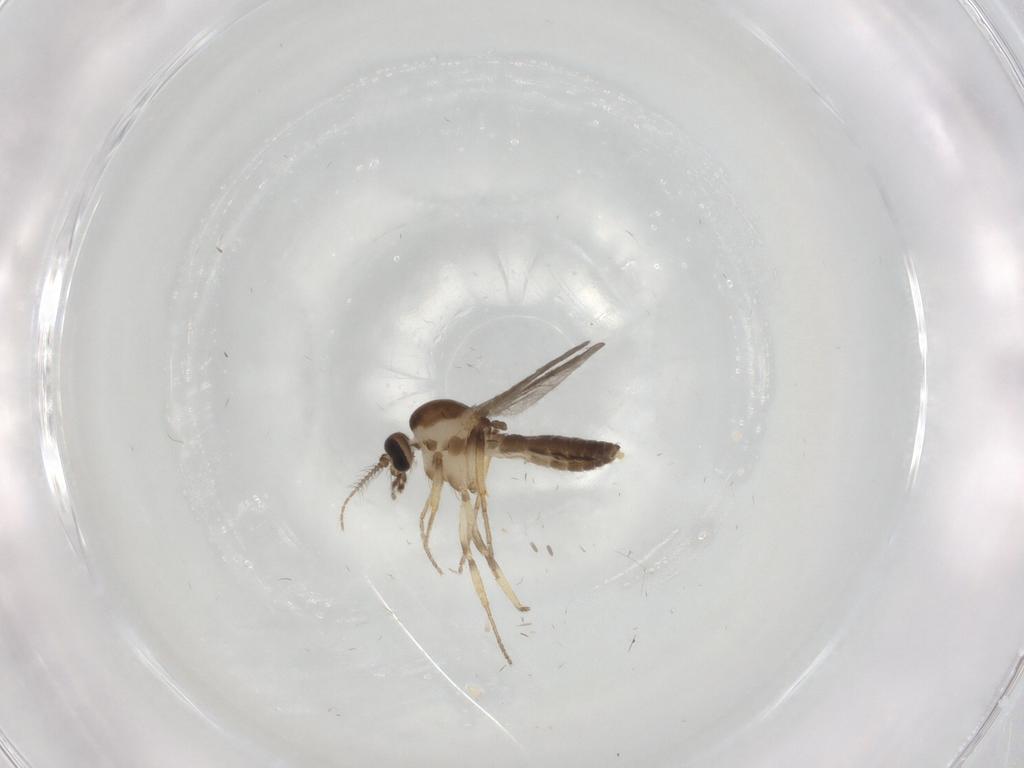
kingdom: Animalia
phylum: Arthropoda
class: Insecta
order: Diptera
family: Ceratopogonidae
